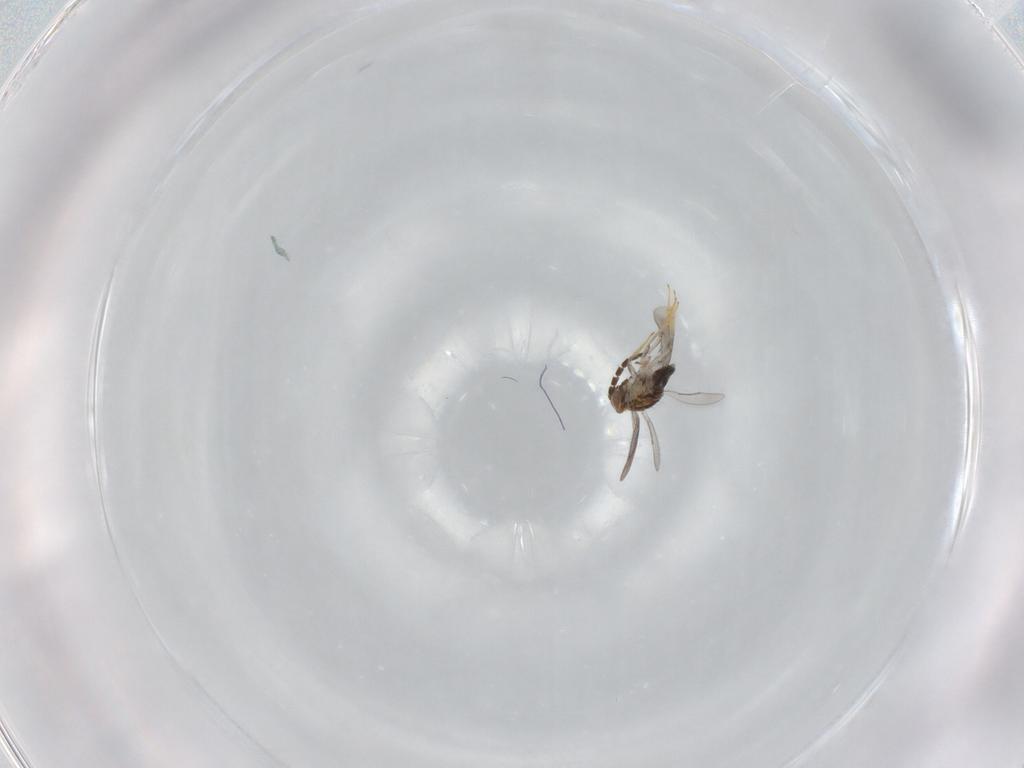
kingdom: Animalia
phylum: Arthropoda
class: Insecta
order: Hymenoptera
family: Aphelinidae
